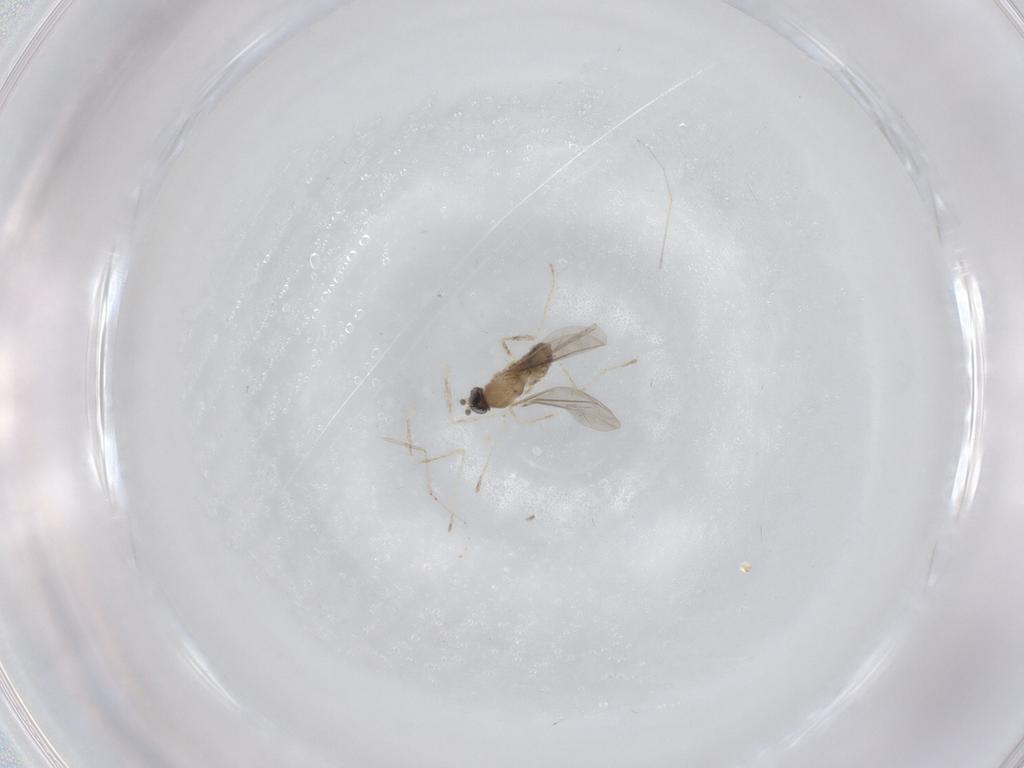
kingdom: Animalia
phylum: Arthropoda
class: Insecta
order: Diptera
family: Cecidomyiidae
